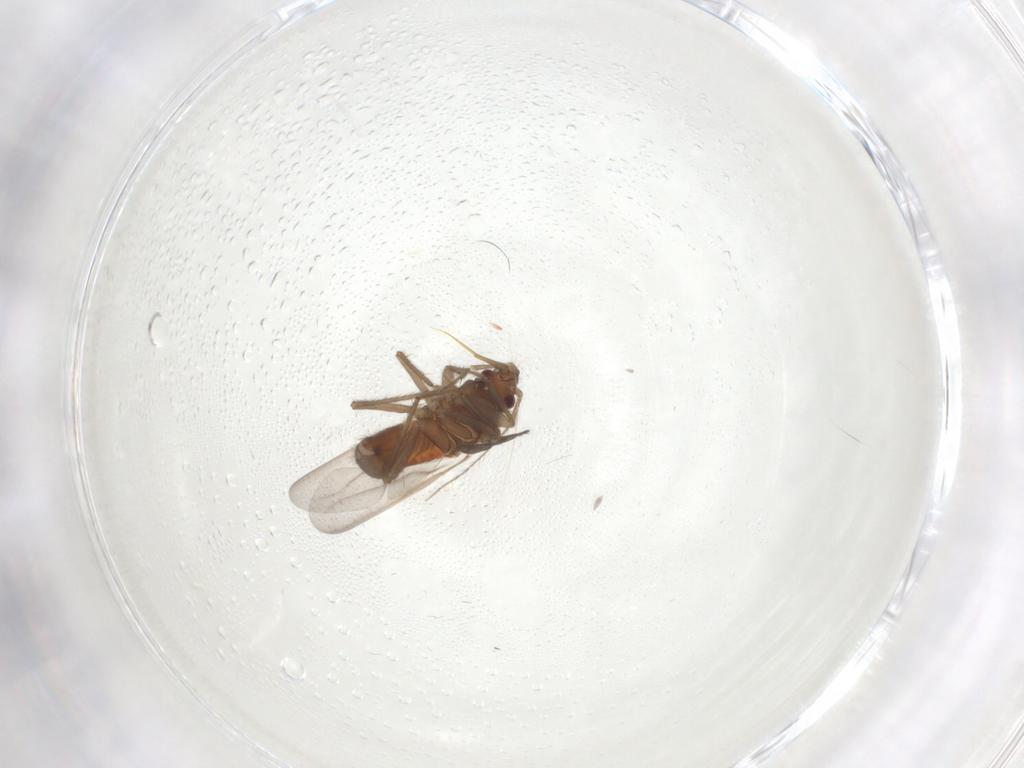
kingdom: Animalia
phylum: Arthropoda
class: Insecta
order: Hemiptera
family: Ceratocombidae
